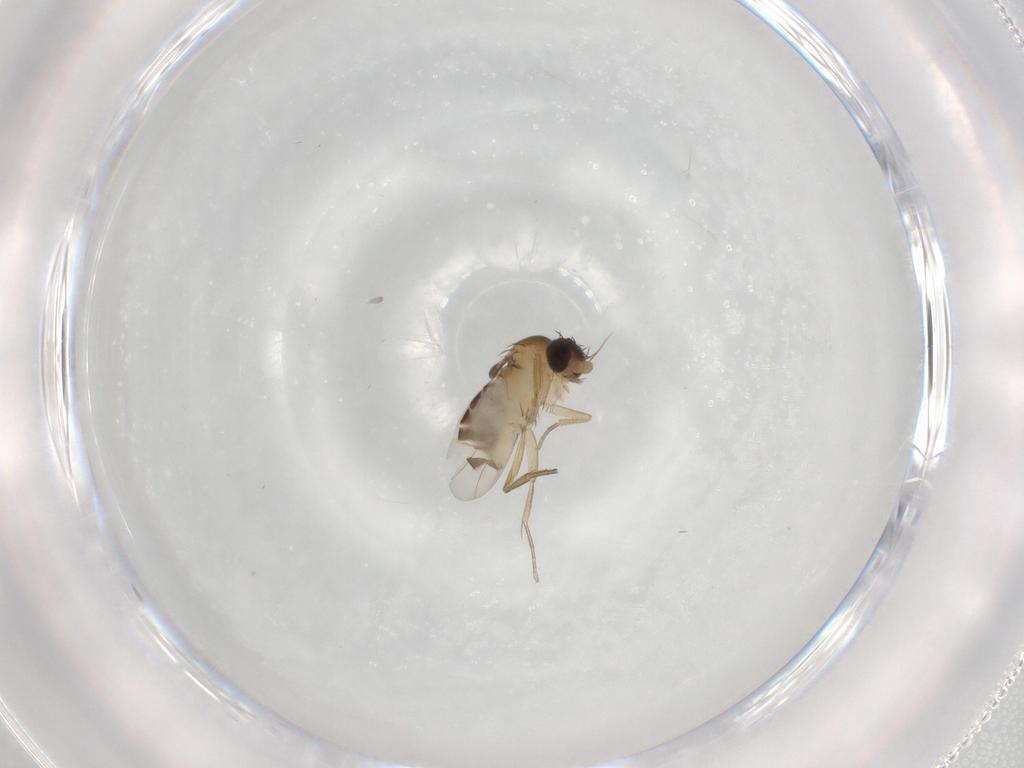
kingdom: Animalia
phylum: Arthropoda
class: Insecta
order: Diptera
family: Phoridae
